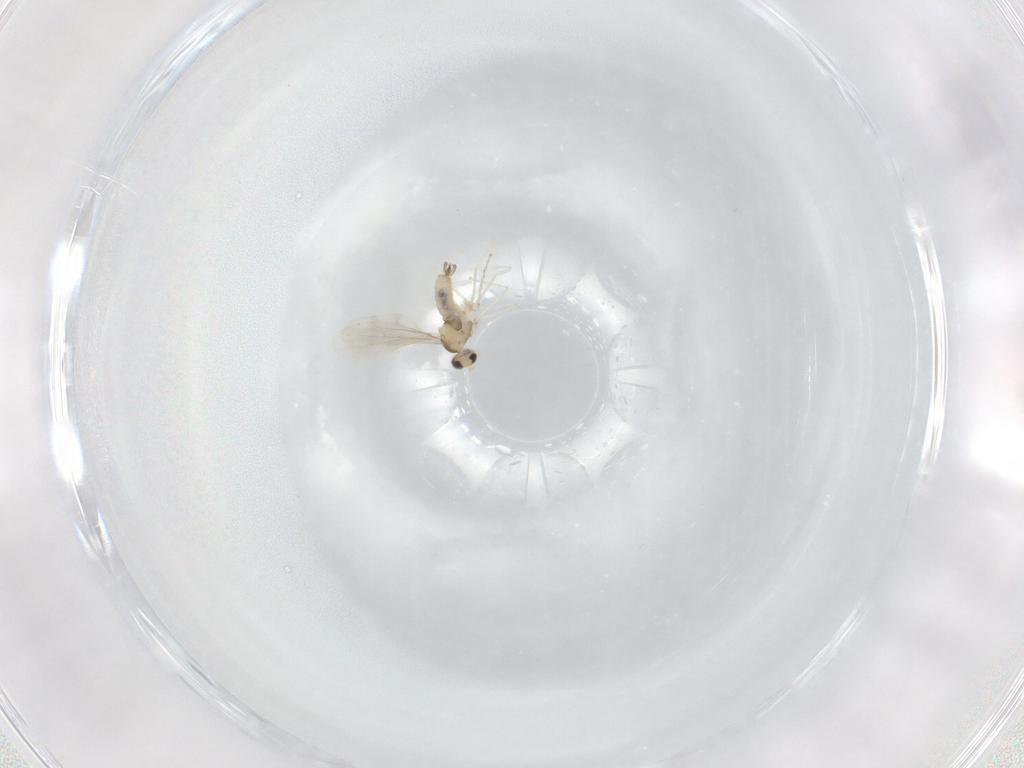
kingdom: Animalia
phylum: Arthropoda
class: Insecta
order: Diptera
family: Cecidomyiidae
